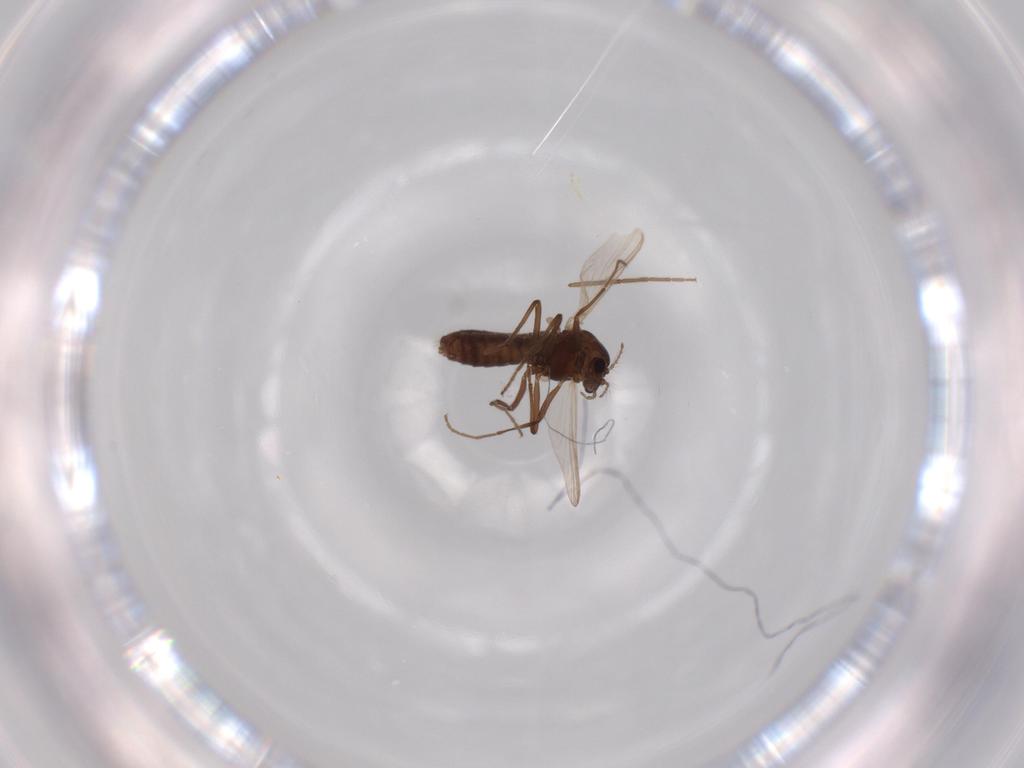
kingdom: Animalia
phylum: Arthropoda
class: Insecta
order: Diptera
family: Chironomidae
